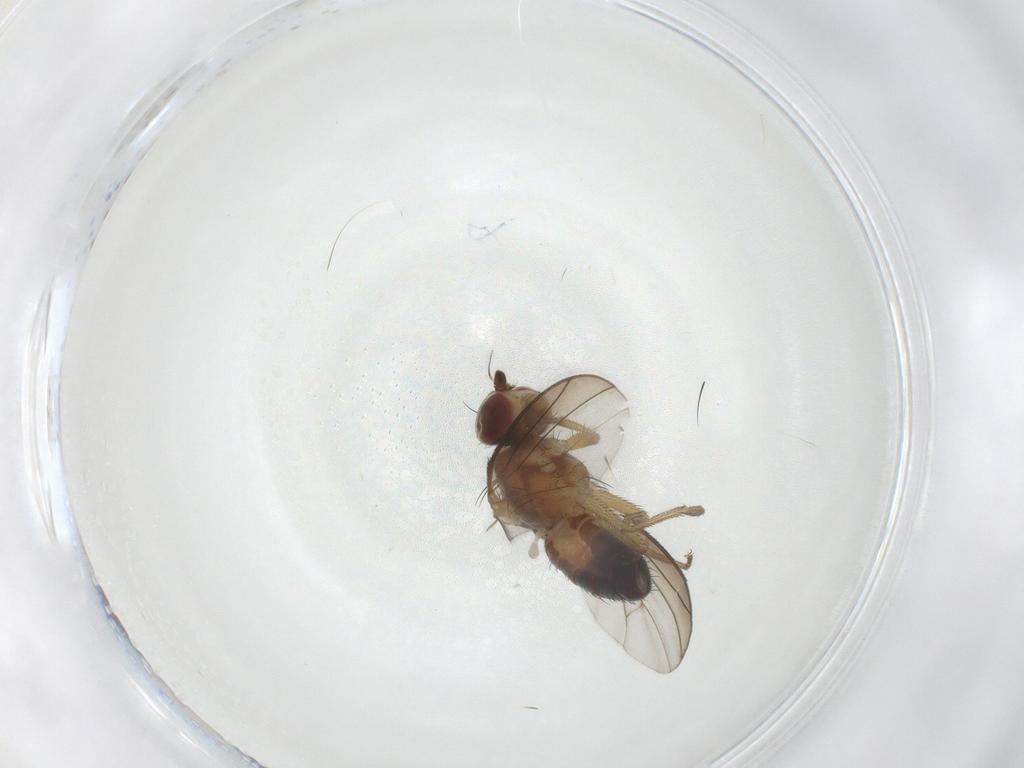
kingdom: Animalia
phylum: Arthropoda
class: Insecta
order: Diptera
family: Heleomyzidae
